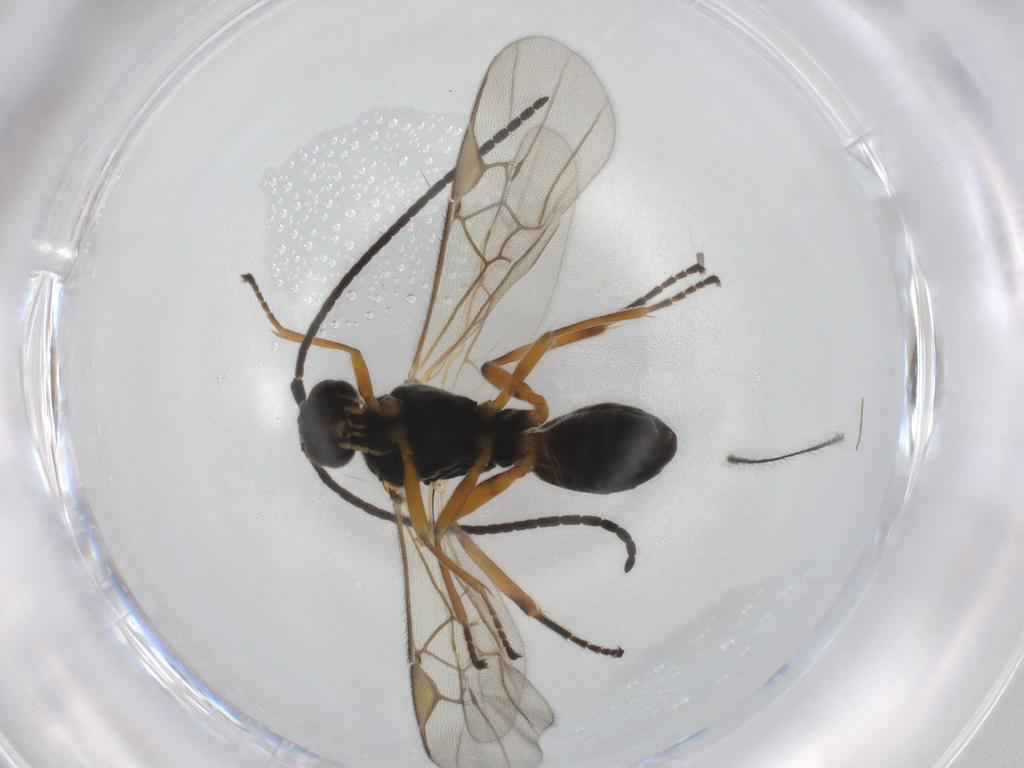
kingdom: Animalia
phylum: Arthropoda
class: Insecta
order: Hymenoptera
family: Braconidae
